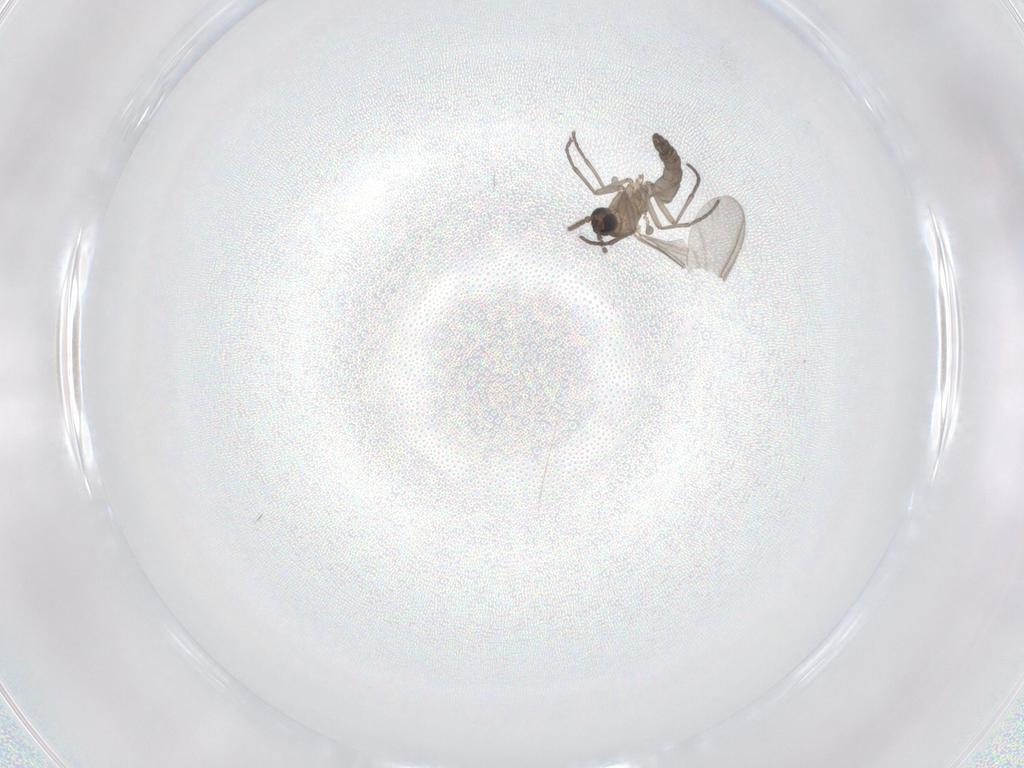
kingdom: Animalia
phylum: Arthropoda
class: Insecta
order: Diptera
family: Sciaridae
